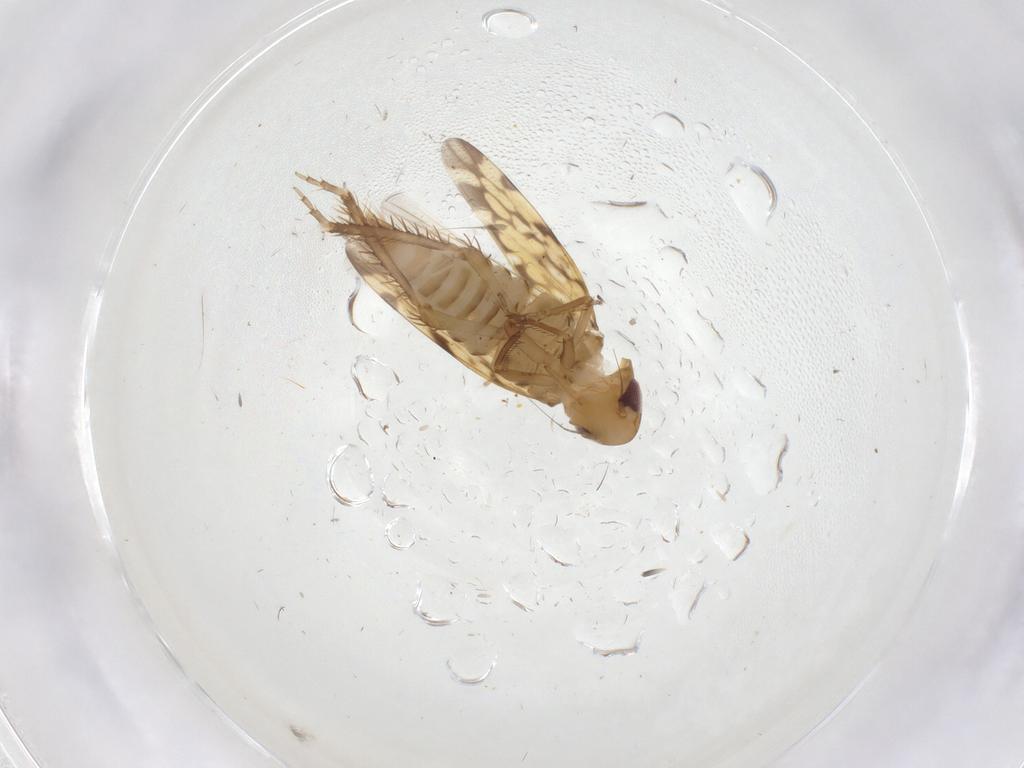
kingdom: Animalia
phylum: Arthropoda
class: Insecta
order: Hemiptera
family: Cicadellidae
